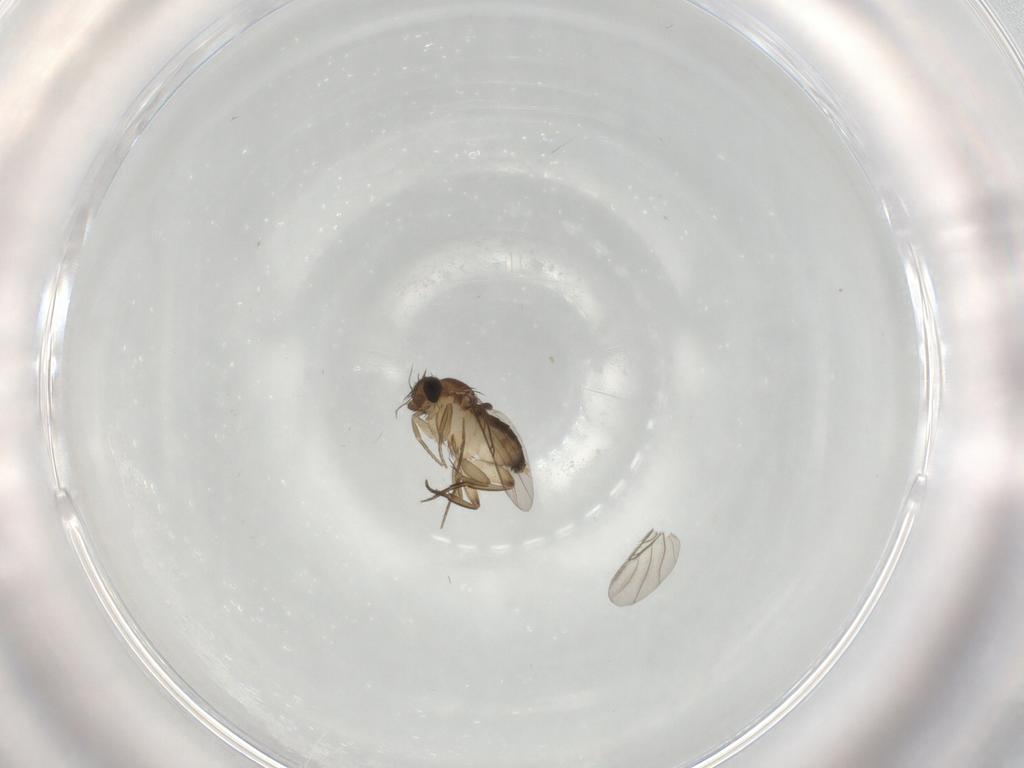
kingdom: Animalia
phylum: Arthropoda
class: Insecta
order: Diptera
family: Phoridae
